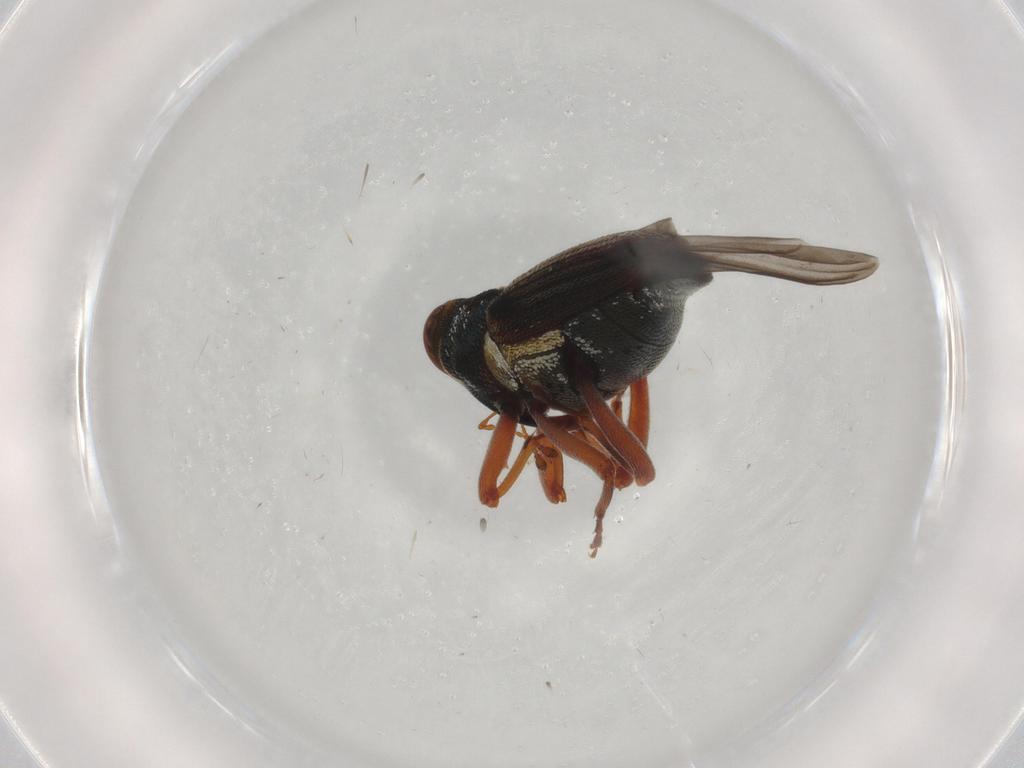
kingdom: Animalia
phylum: Arthropoda
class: Insecta
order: Coleoptera
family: Curculionidae
